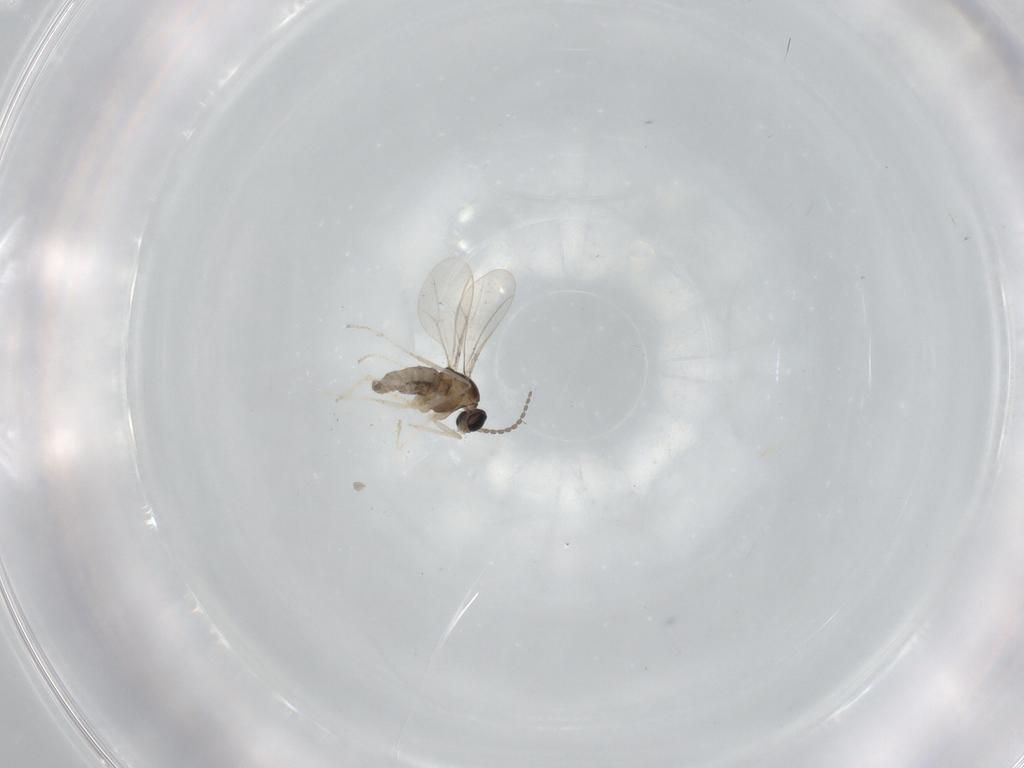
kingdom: Animalia
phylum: Arthropoda
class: Insecta
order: Diptera
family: Cecidomyiidae
